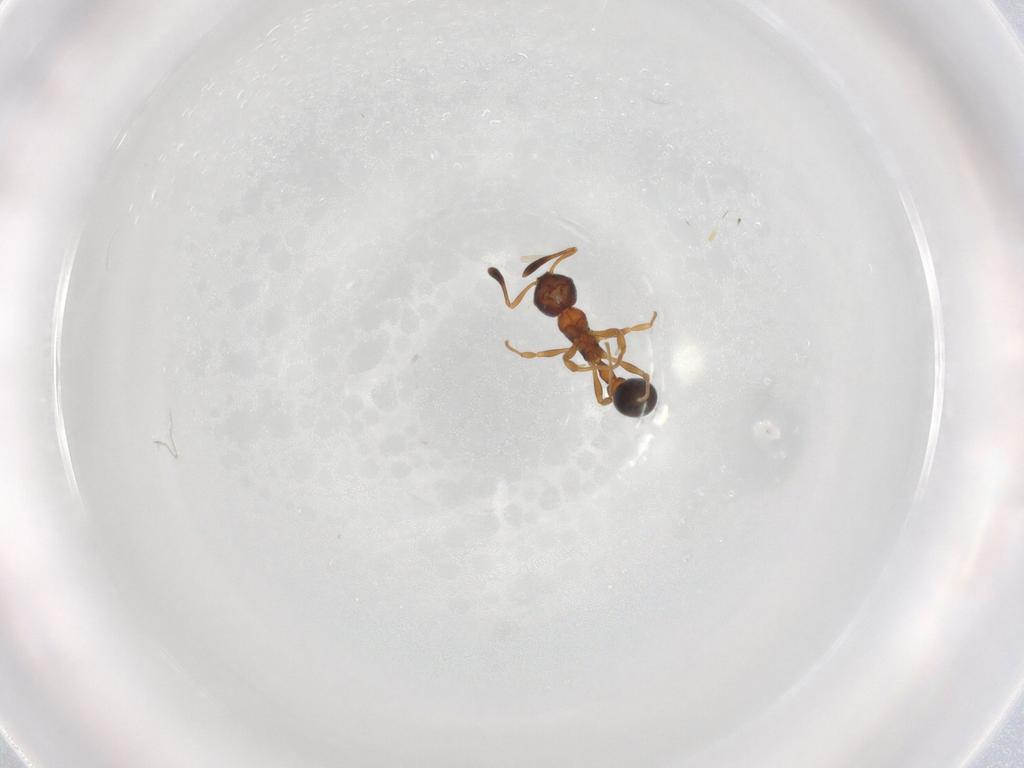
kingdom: Animalia
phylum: Arthropoda
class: Insecta
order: Hymenoptera
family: Formicidae
